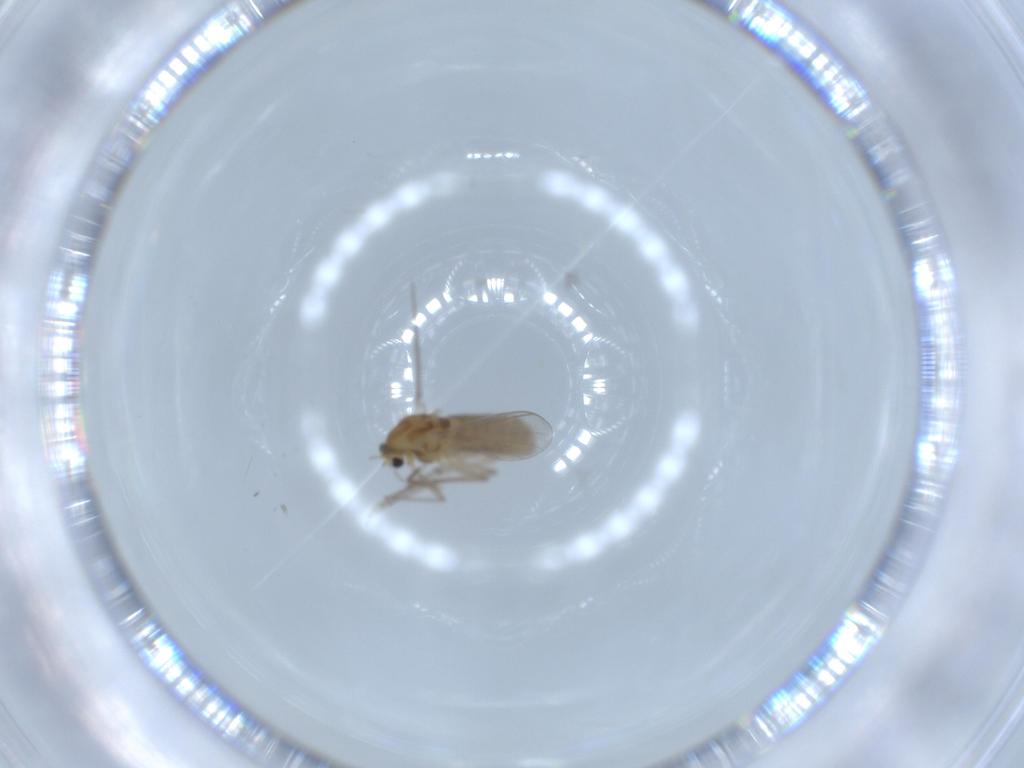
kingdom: Animalia
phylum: Arthropoda
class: Insecta
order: Diptera
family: Chironomidae
